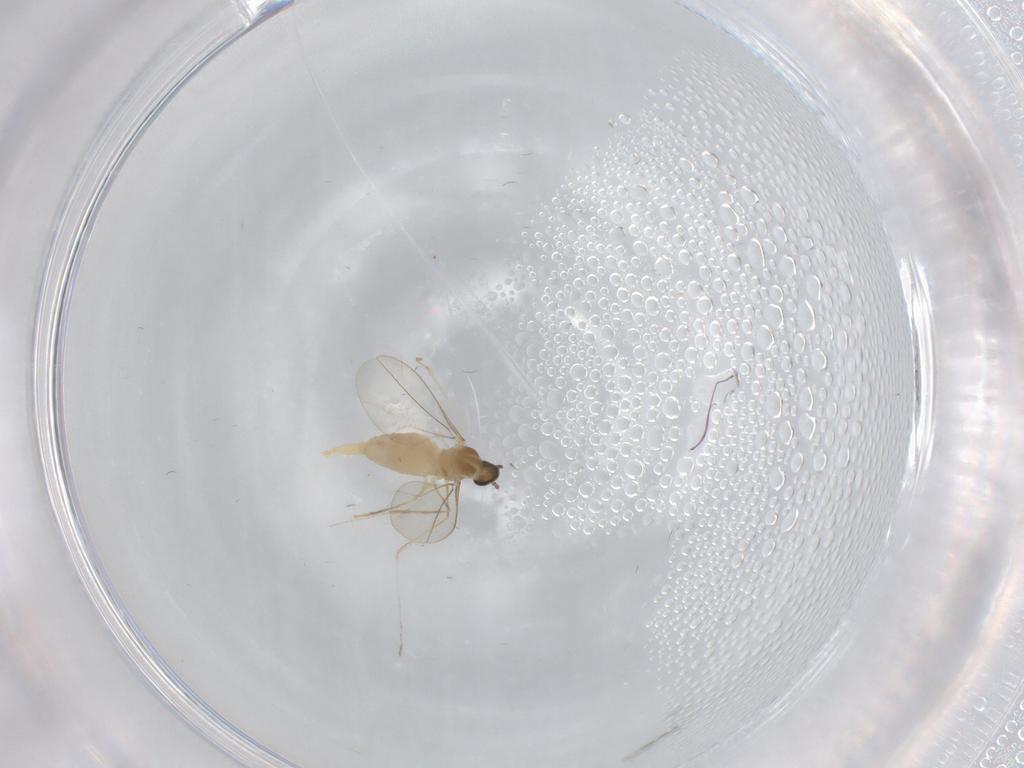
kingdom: Animalia
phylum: Arthropoda
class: Insecta
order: Diptera
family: Cecidomyiidae
